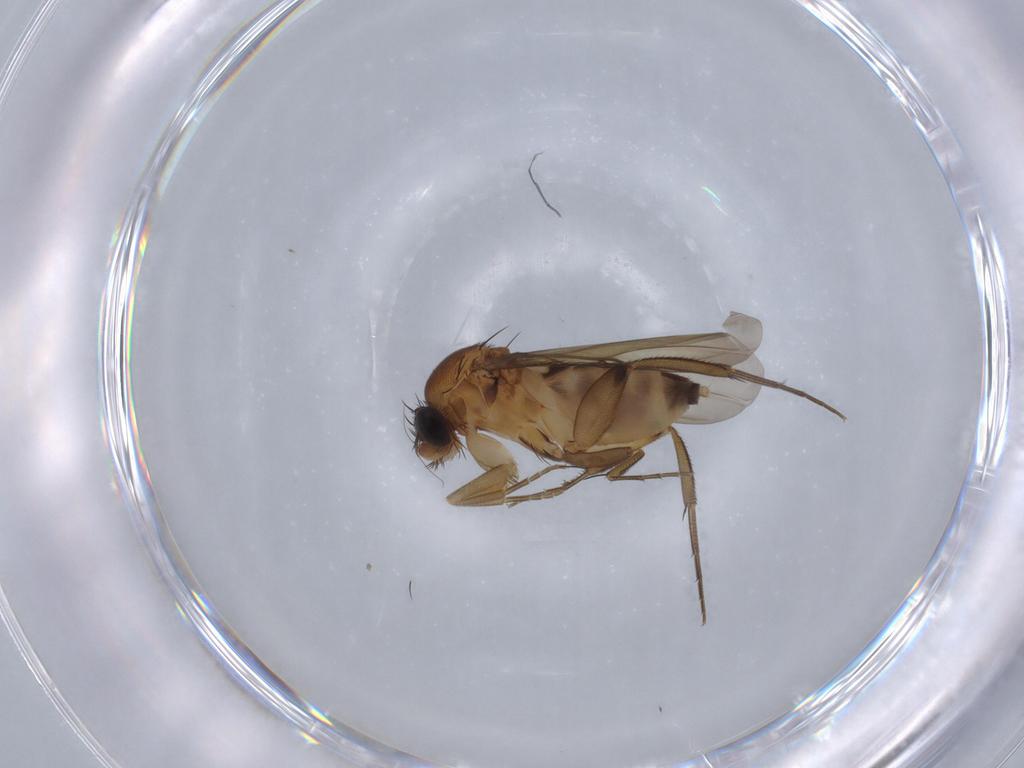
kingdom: Animalia
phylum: Arthropoda
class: Insecta
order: Diptera
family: Phoridae
